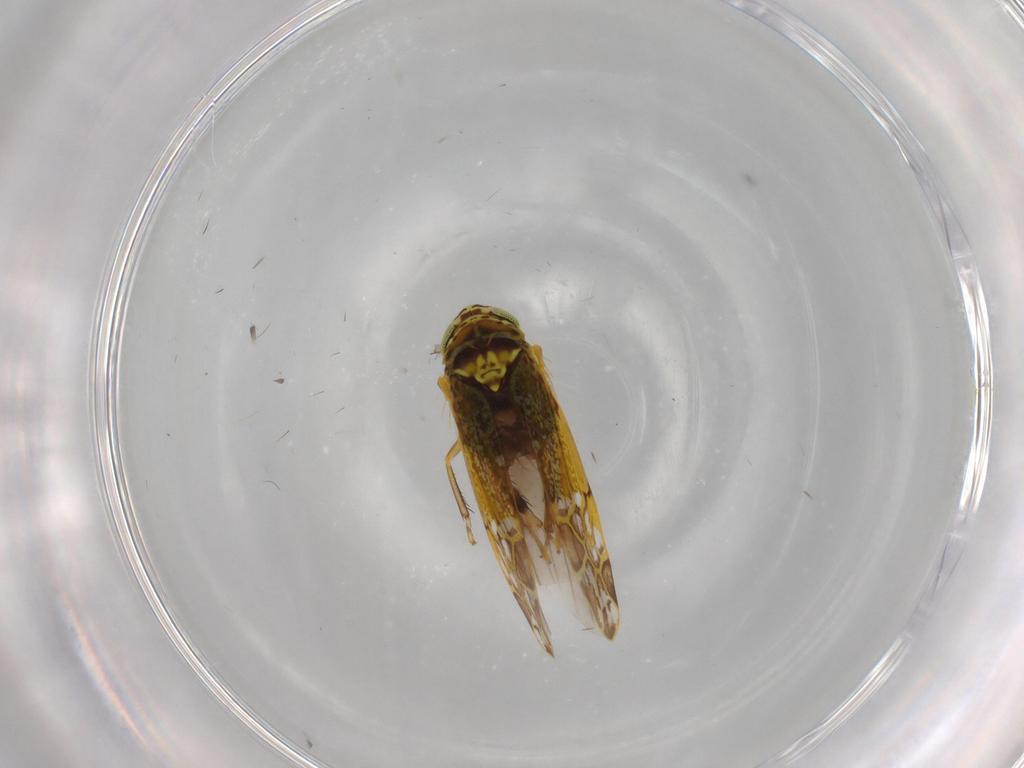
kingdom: Animalia
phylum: Arthropoda
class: Insecta
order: Hemiptera
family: Cicadellidae
